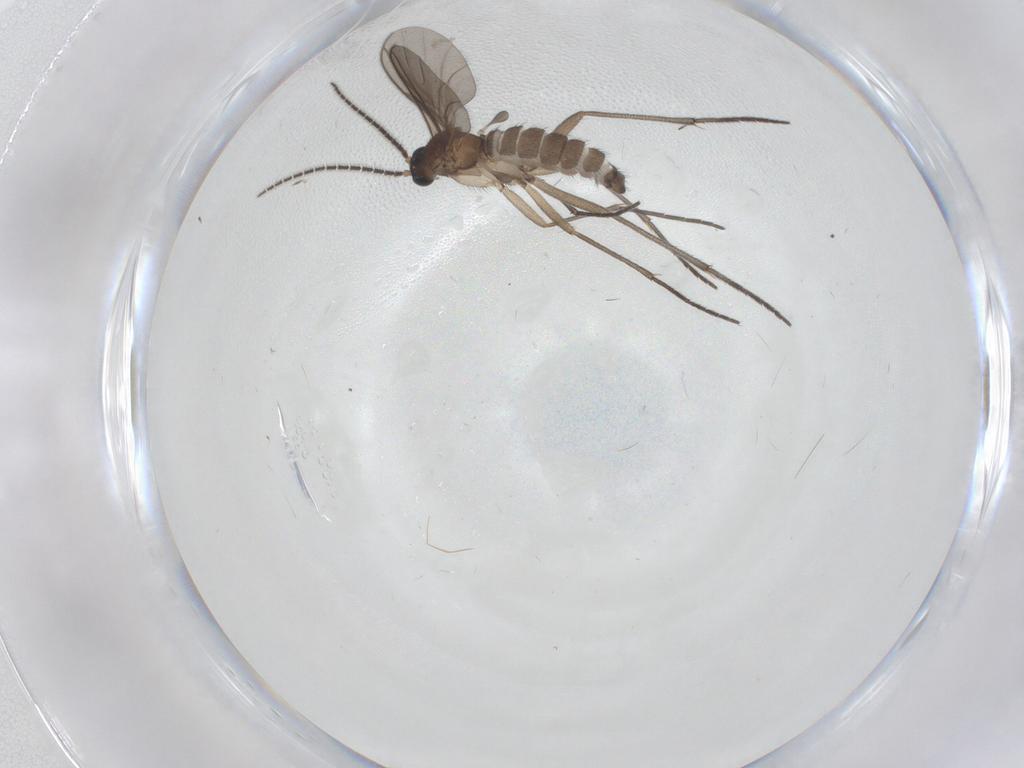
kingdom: Animalia
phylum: Arthropoda
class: Insecta
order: Diptera
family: Sciaridae
